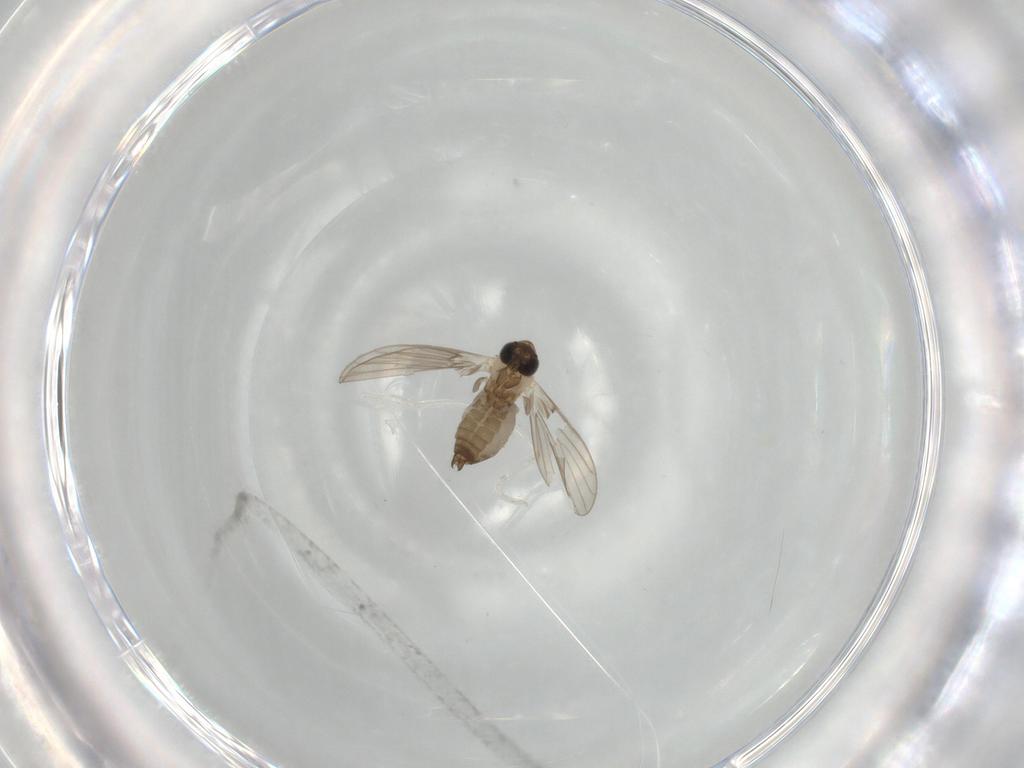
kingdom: Animalia
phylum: Arthropoda
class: Insecta
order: Diptera
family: Psychodidae
